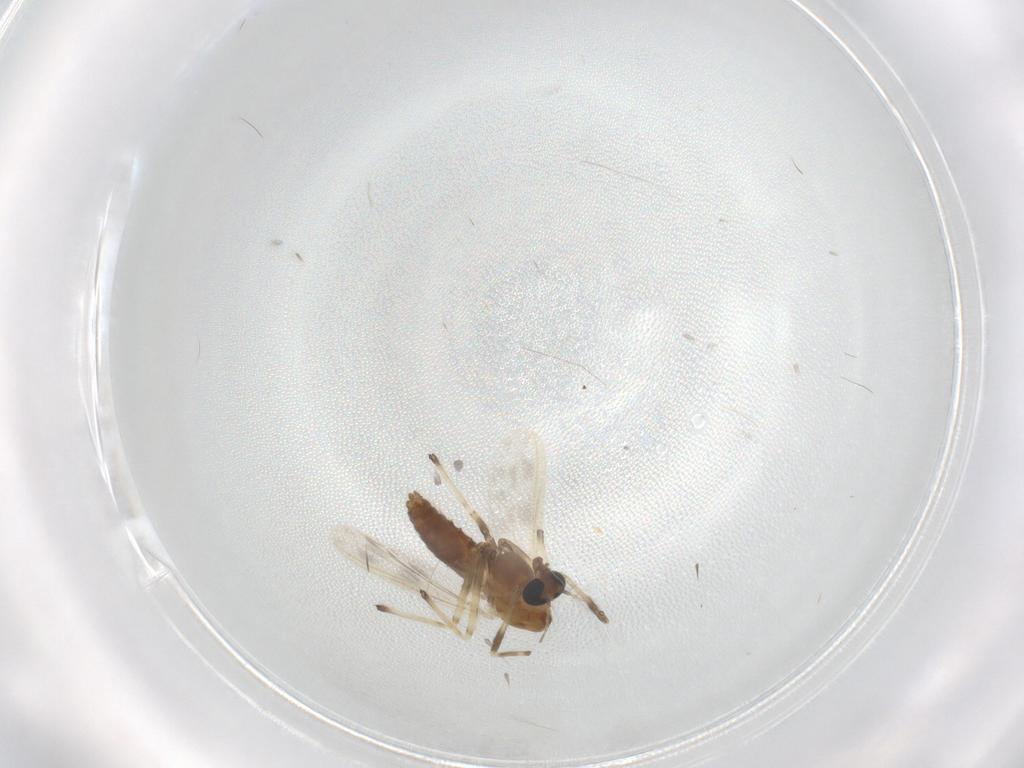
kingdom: Animalia
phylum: Arthropoda
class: Insecta
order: Diptera
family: Chironomidae
